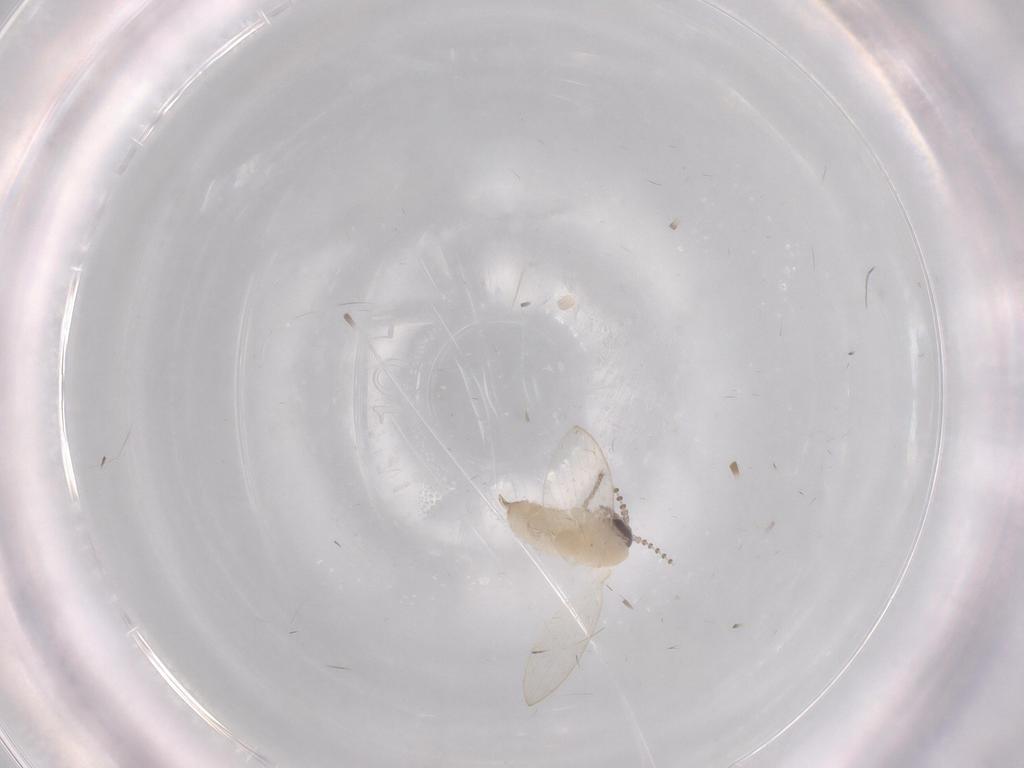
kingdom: Animalia
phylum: Arthropoda
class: Insecta
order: Diptera
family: Psychodidae
